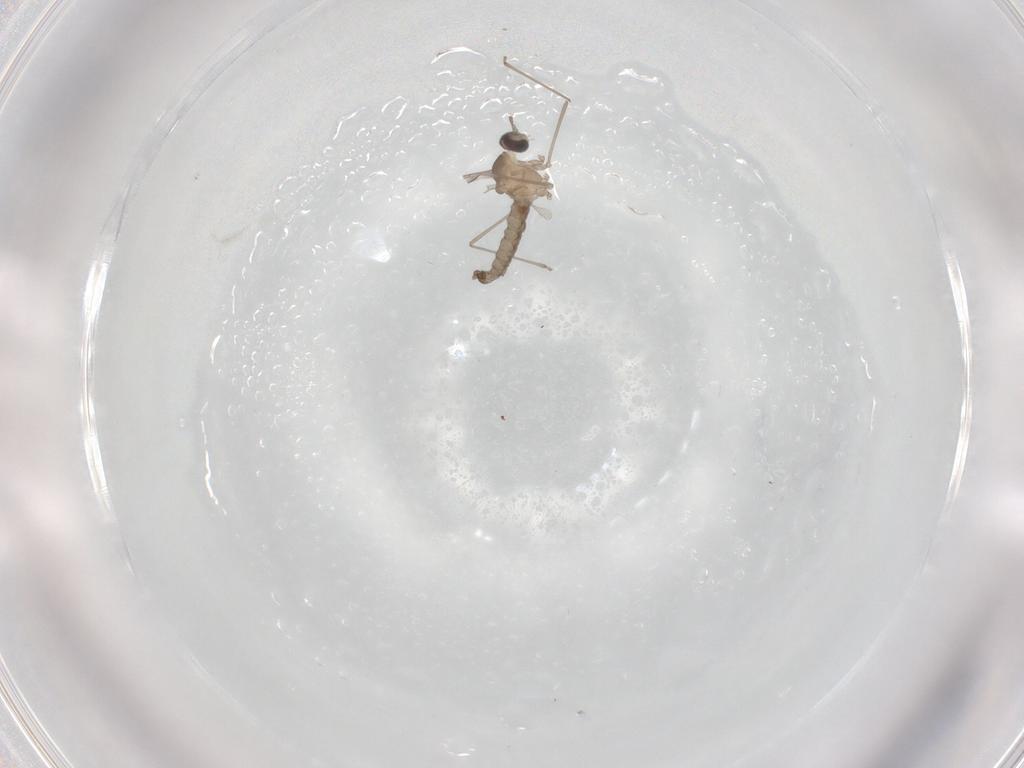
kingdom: Animalia
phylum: Arthropoda
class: Insecta
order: Diptera
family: Cecidomyiidae
